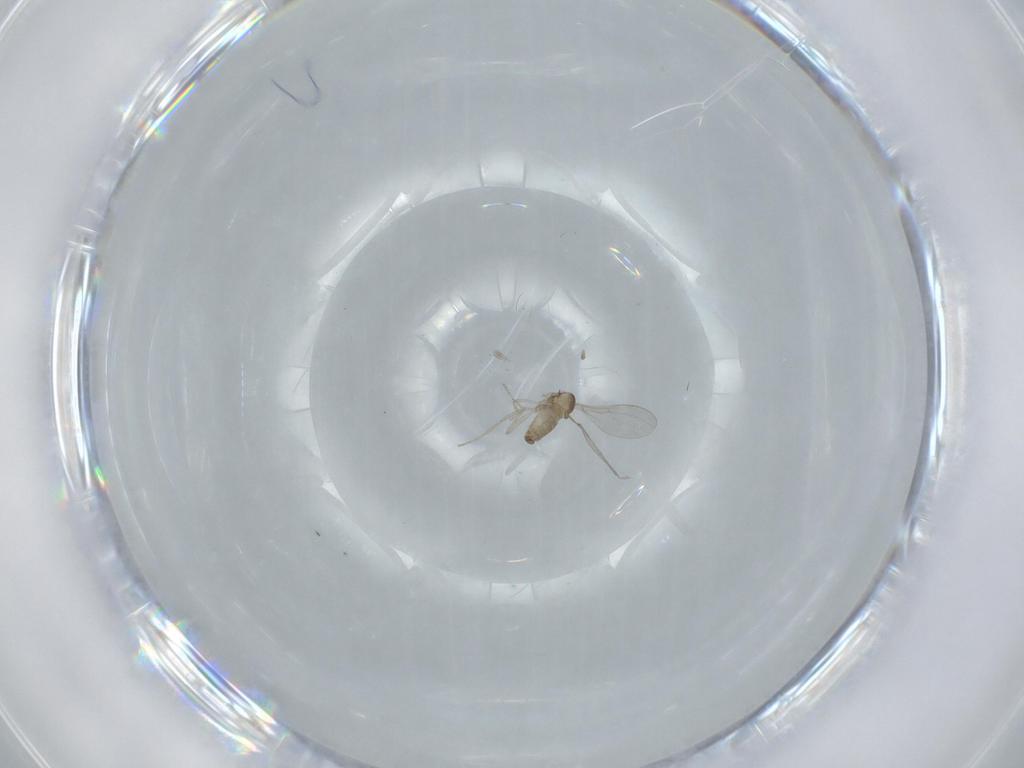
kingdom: Animalia
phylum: Arthropoda
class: Insecta
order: Diptera
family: Cecidomyiidae
